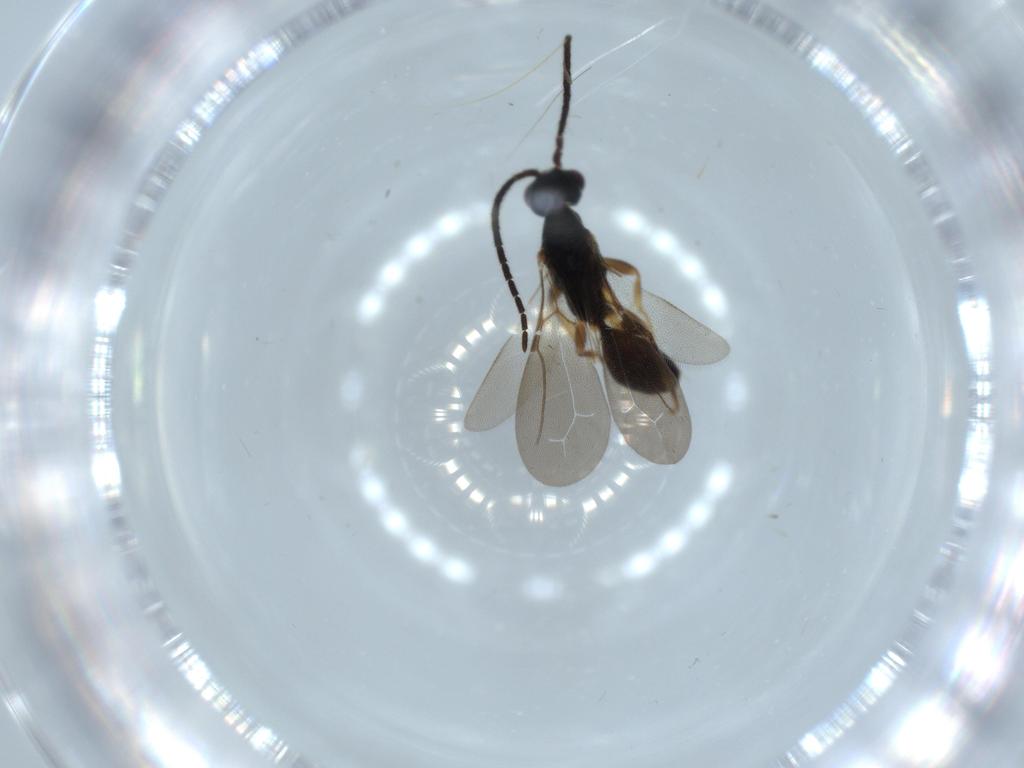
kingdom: Animalia
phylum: Arthropoda
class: Insecta
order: Hymenoptera
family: Bethylidae
